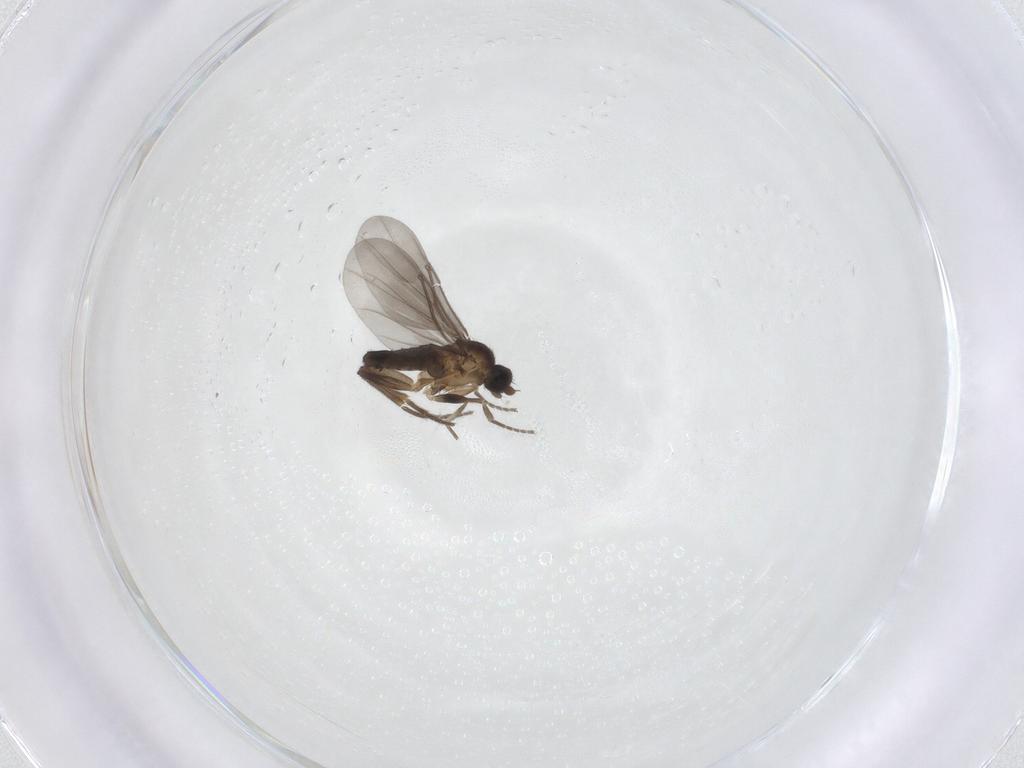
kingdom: Animalia
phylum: Arthropoda
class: Insecta
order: Diptera
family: Phoridae
